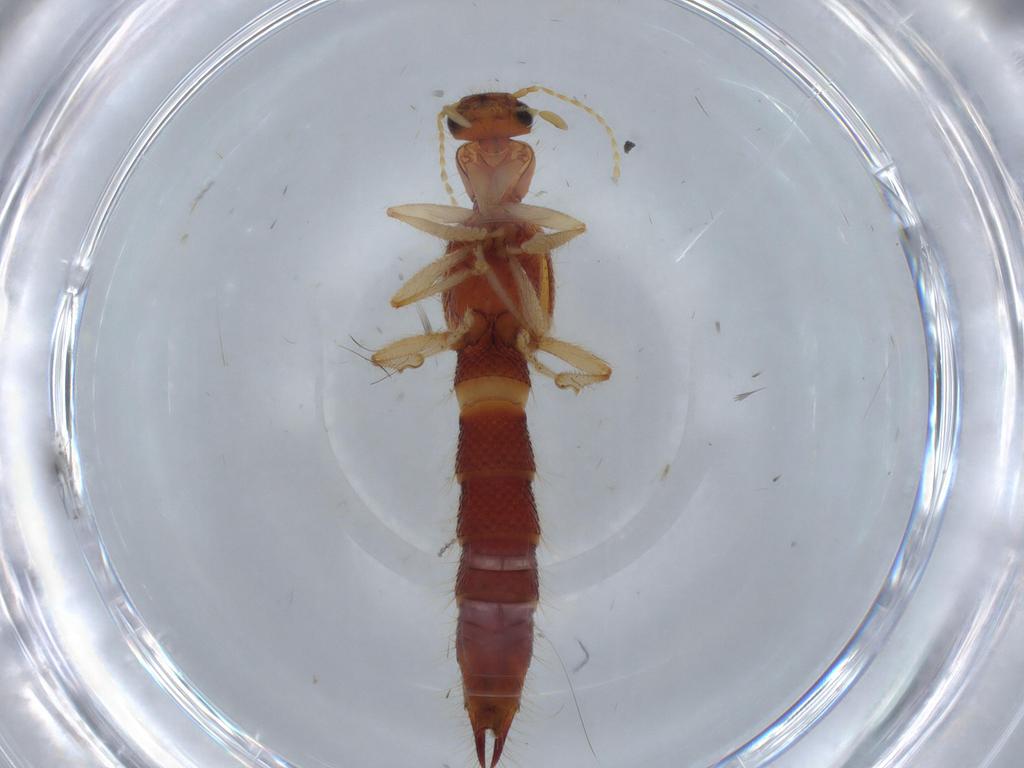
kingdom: Animalia
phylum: Arthropoda
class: Insecta
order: Coleoptera
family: Staphylinidae
